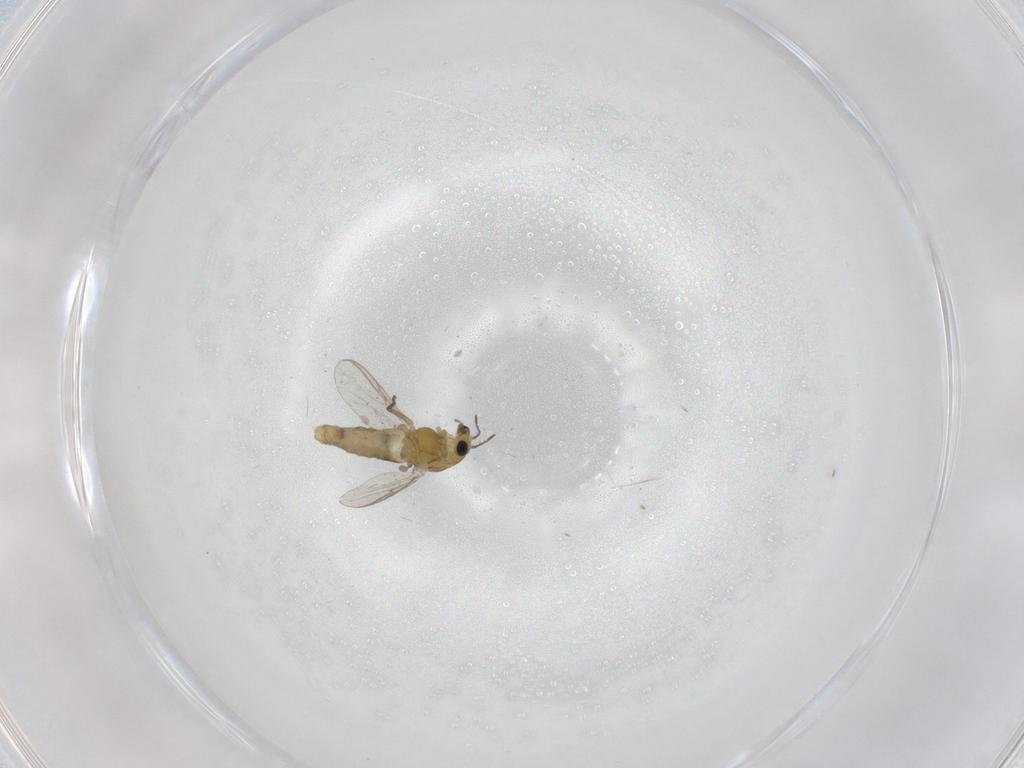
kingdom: Animalia
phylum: Arthropoda
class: Insecta
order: Diptera
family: Chironomidae
